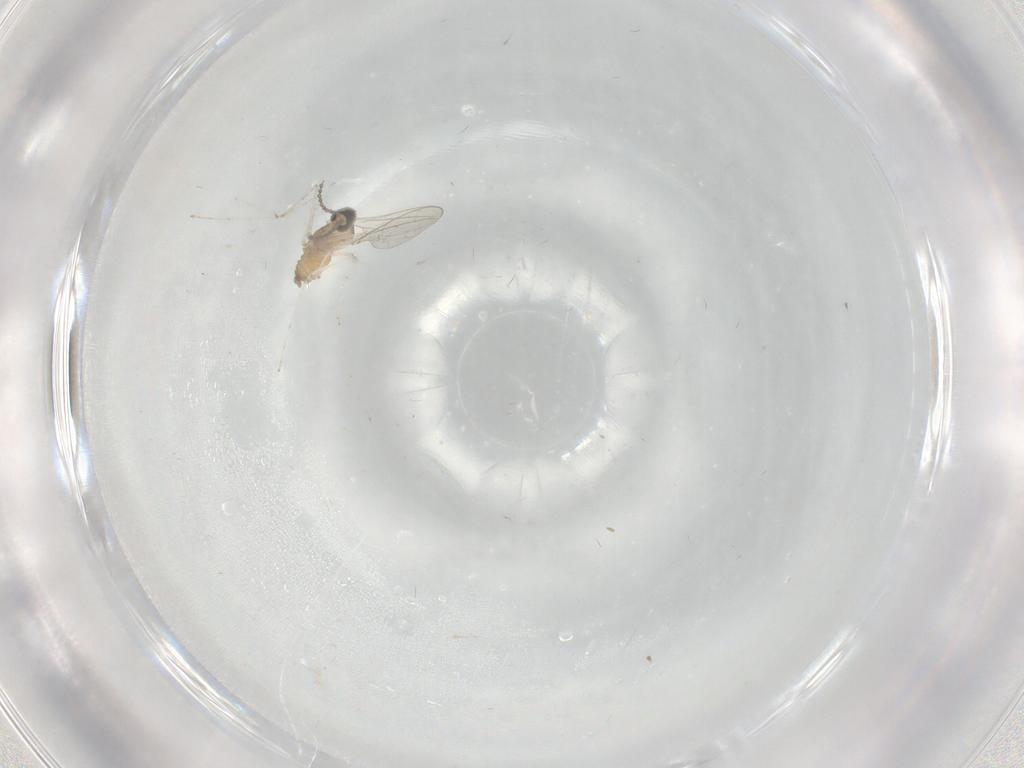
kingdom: Animalia
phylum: Arthropoda
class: Insecta
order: Diptera
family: Cecidomyiidae
